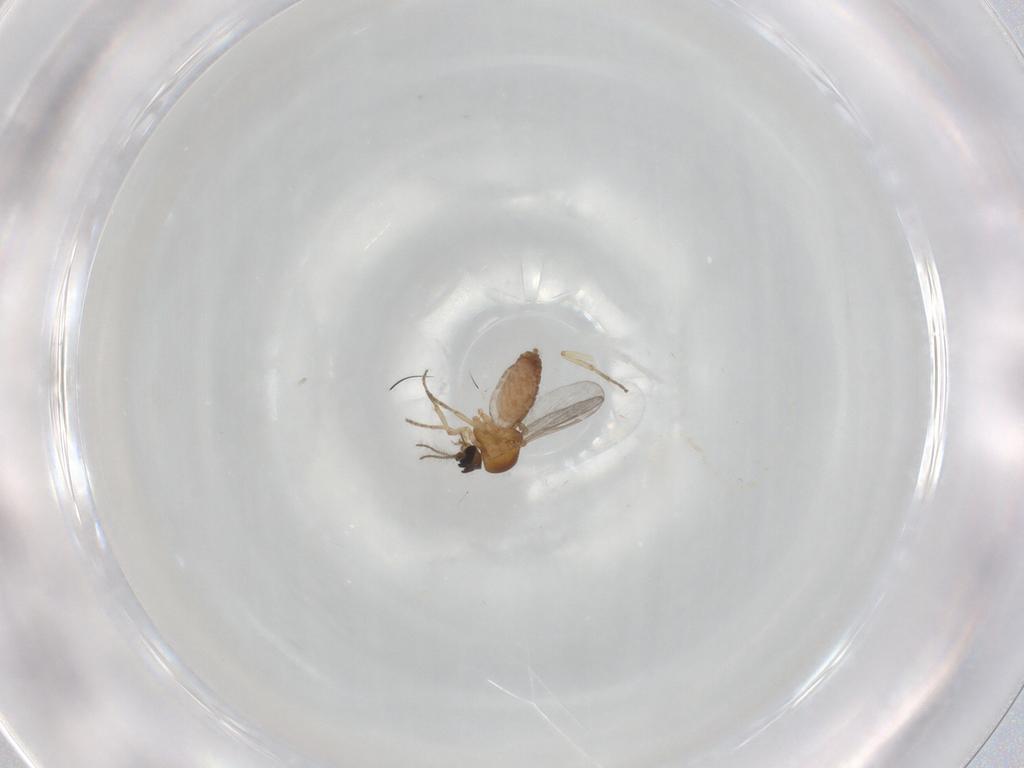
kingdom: Animalia
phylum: Arthropoda
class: Insecta
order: Diptera
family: Ceratopogonidae
